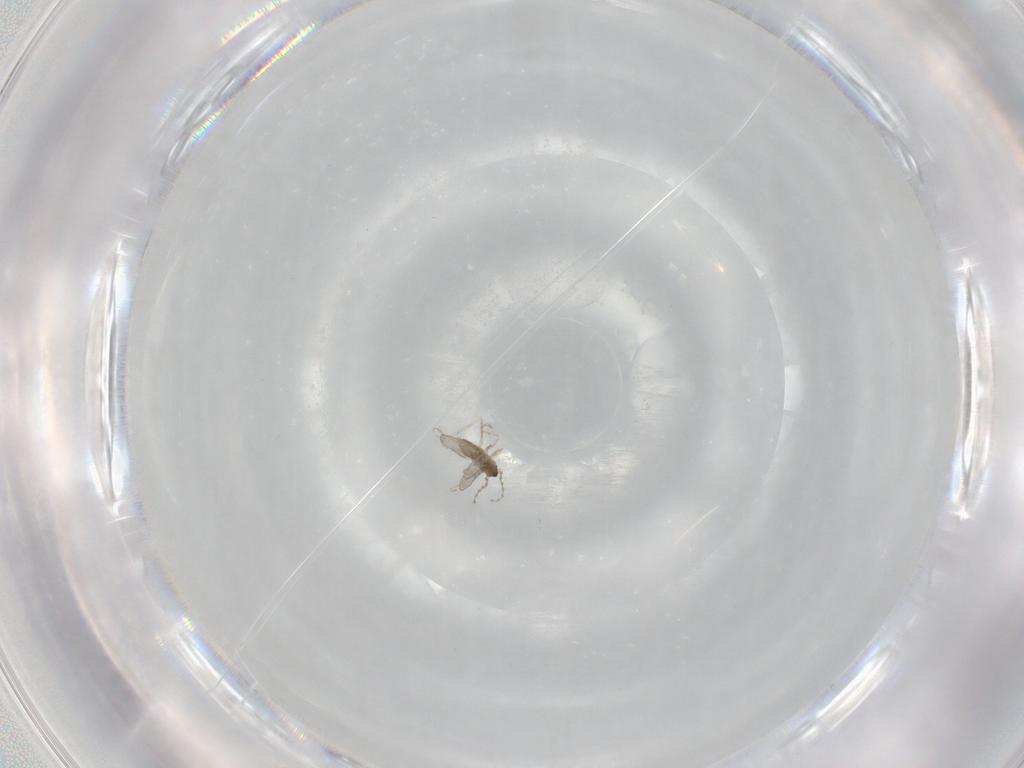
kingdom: Animalia
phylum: Arthropoda
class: Insecta
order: Diptera
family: Cecidomyiidae
